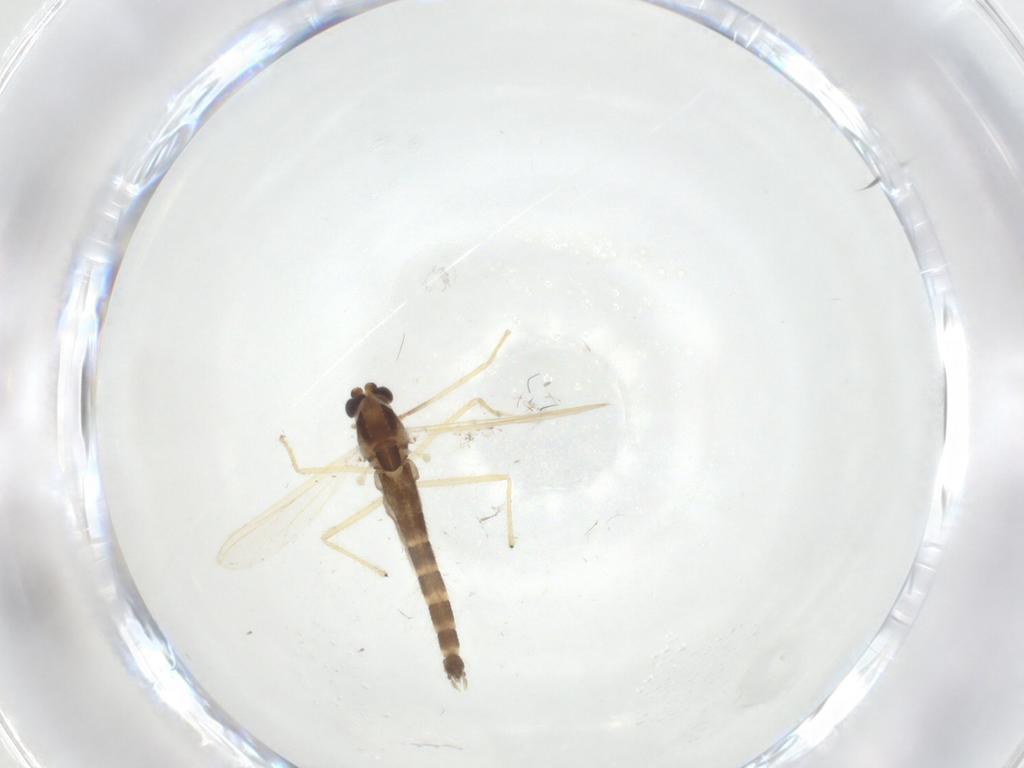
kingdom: Animalia
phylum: Arthropoda
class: Insecta
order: Diptera
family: Chironomidae
